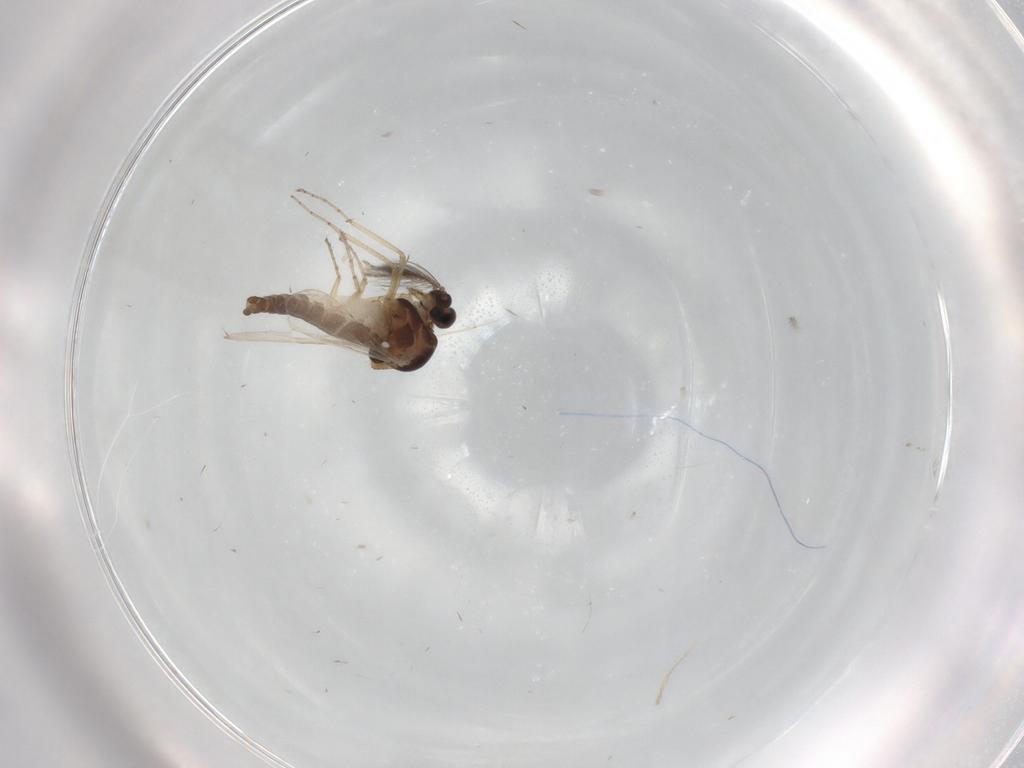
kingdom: Animalia
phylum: Arthropoda
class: Insecta
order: Diptera
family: Ceratopogonidae
